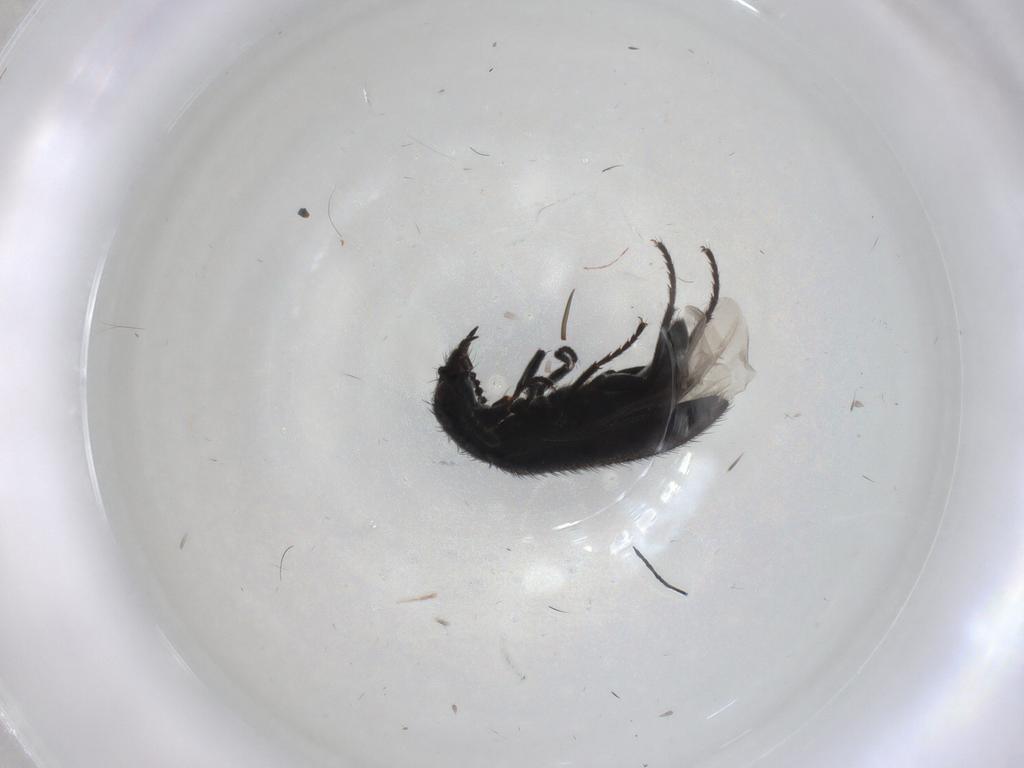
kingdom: Animalia
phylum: Arthropoda
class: Insecta
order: Coleoptera
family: Melyridae
